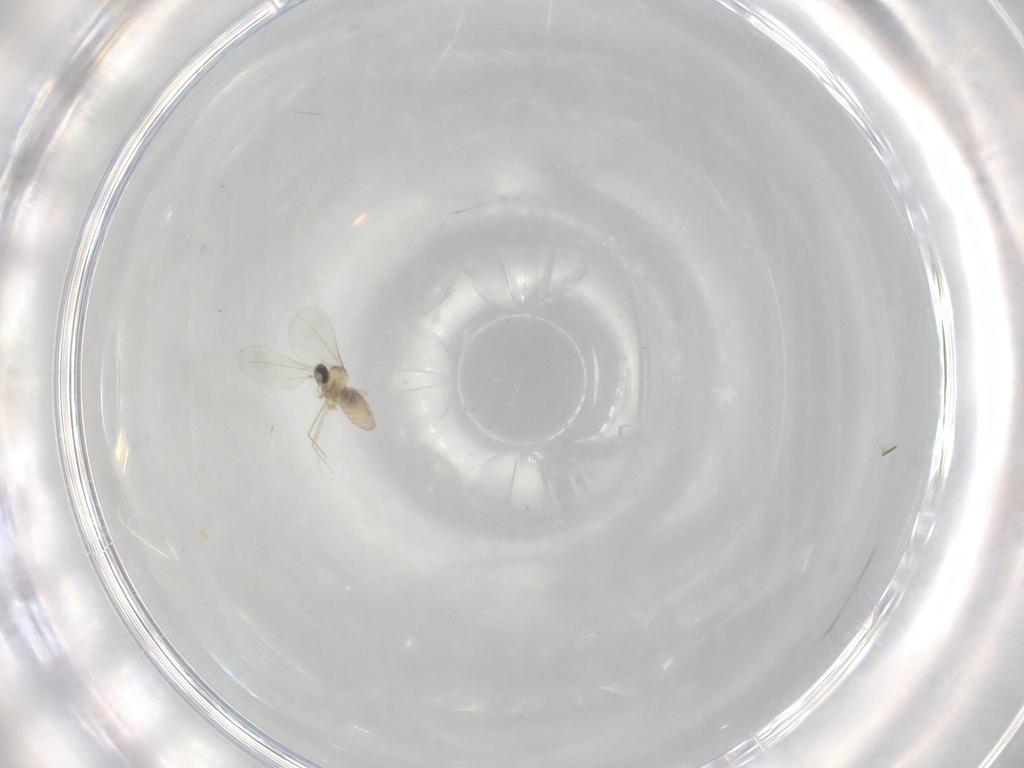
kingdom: Animalia
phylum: Arthropoda
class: Insecta
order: Diptera
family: Cecidomyiidae
